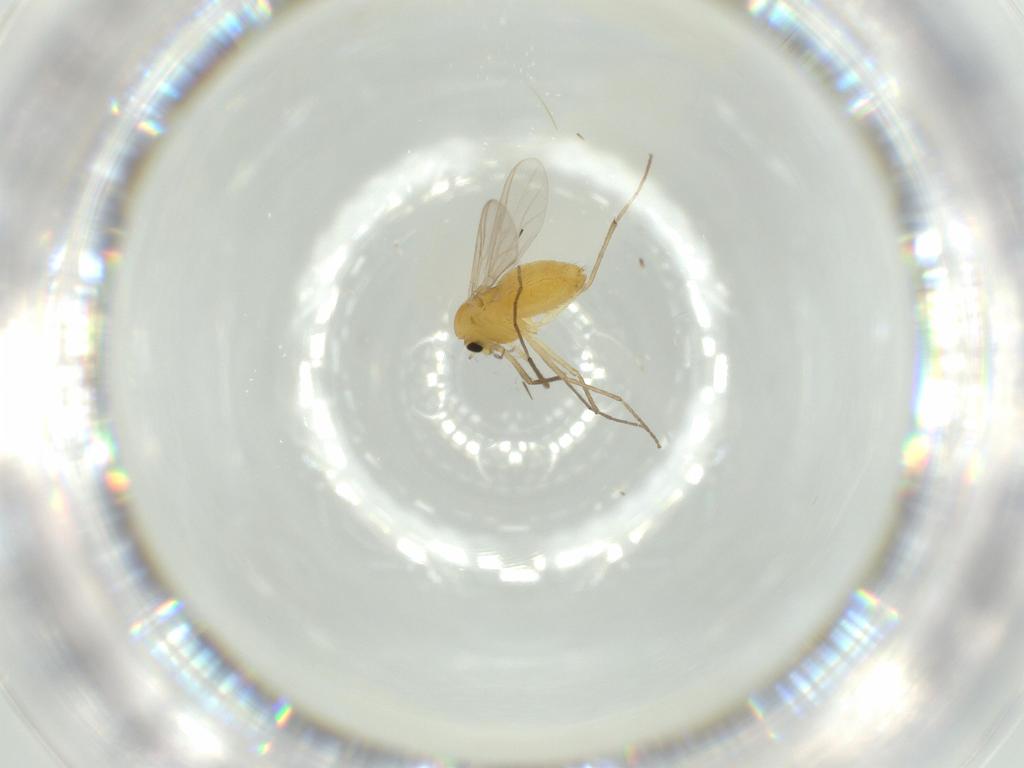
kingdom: Animalia
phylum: Arthropoda
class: Insecta
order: Diptera
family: Chironomidae
